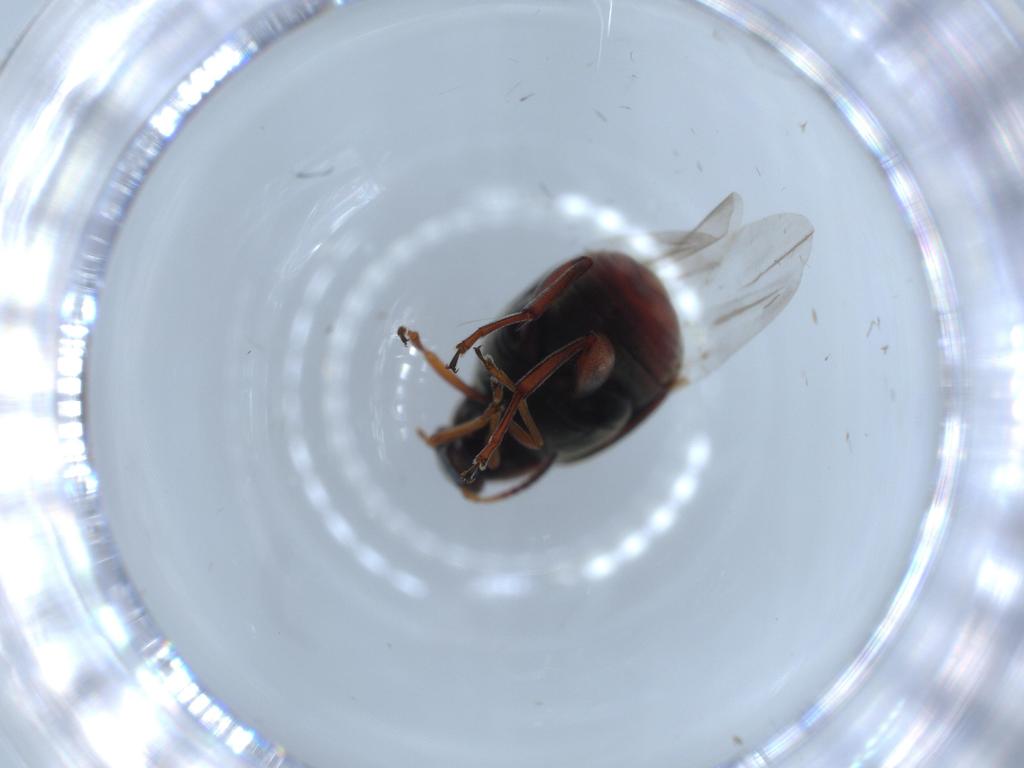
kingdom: Animalia
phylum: Arthropoda
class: Insecta
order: Coleoptera
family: Chrysomelidae
